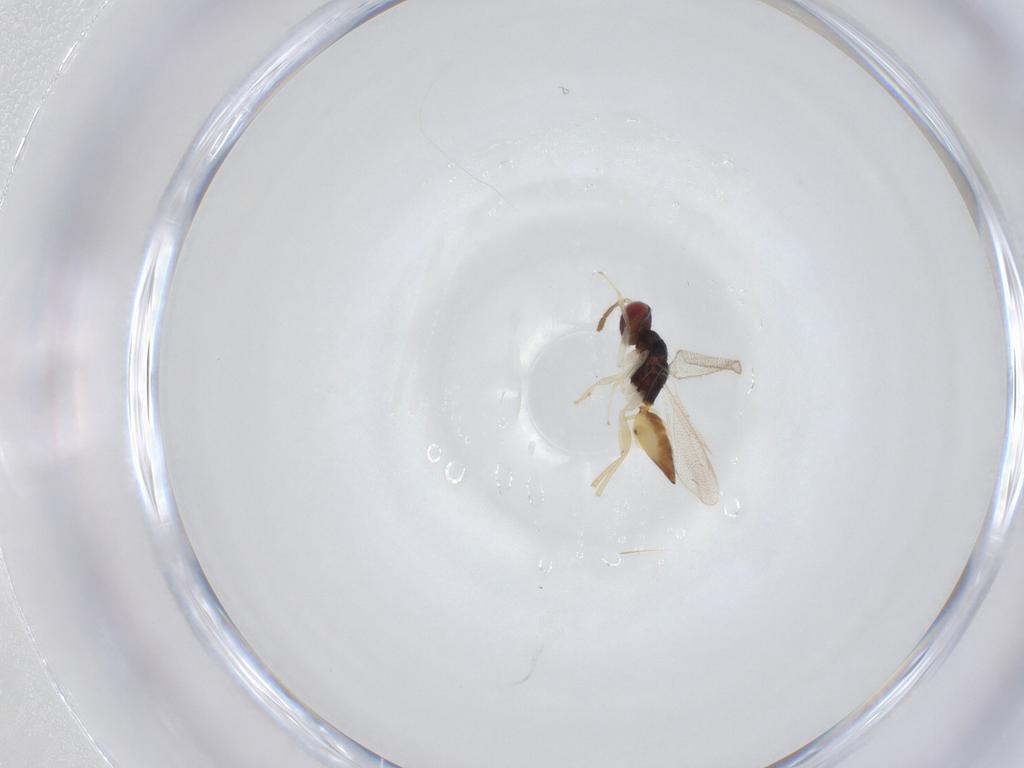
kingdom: Animalia
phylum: Arthropoda
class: Insecta
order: Hymenoptera
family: Eulophidae
